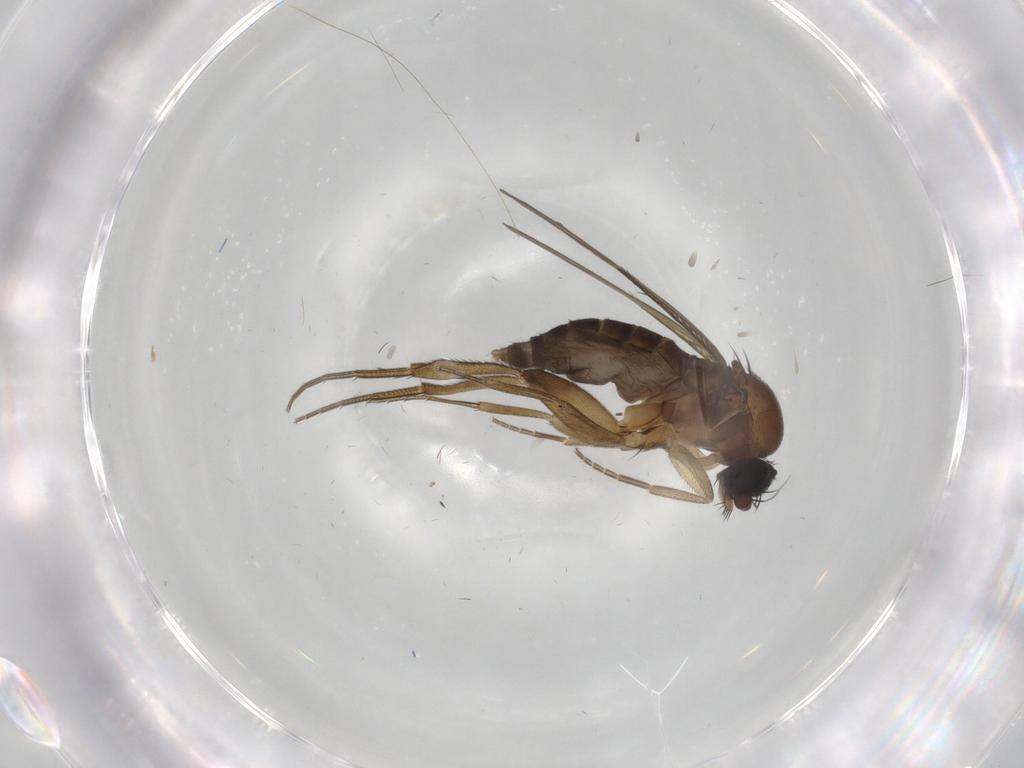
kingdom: Animalia
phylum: Arthropoda
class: Insecta
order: Diptera
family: Phoridae
